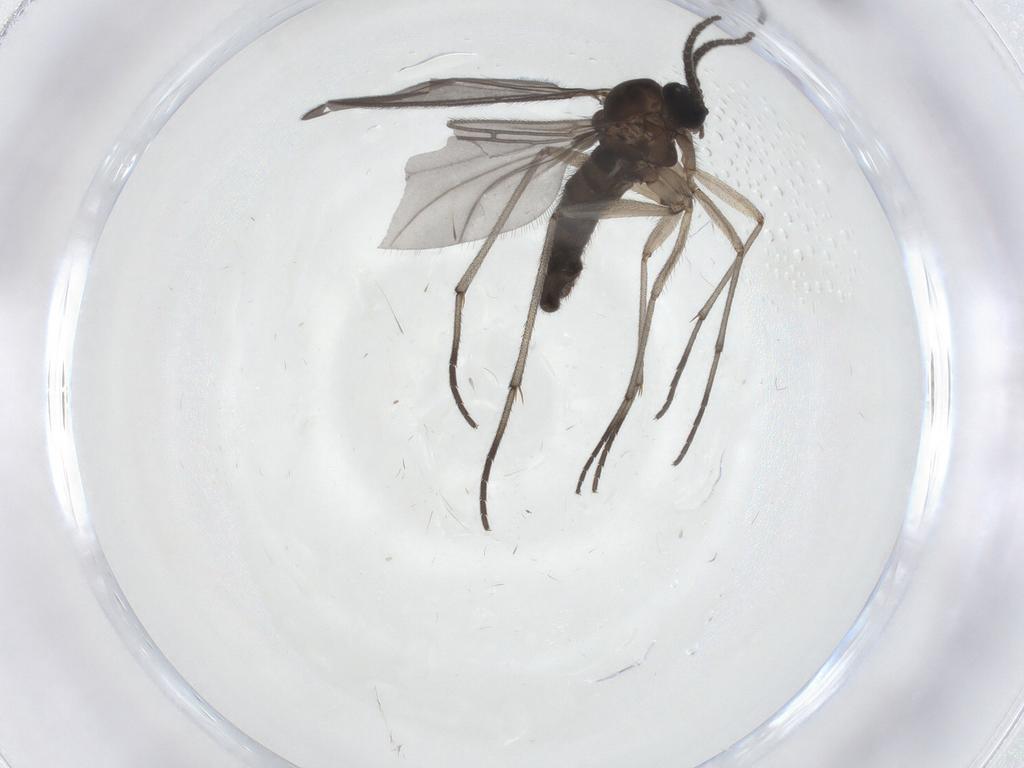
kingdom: Animalia
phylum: Arthropoda
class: Insecta
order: Diptera
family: Sciaridae
